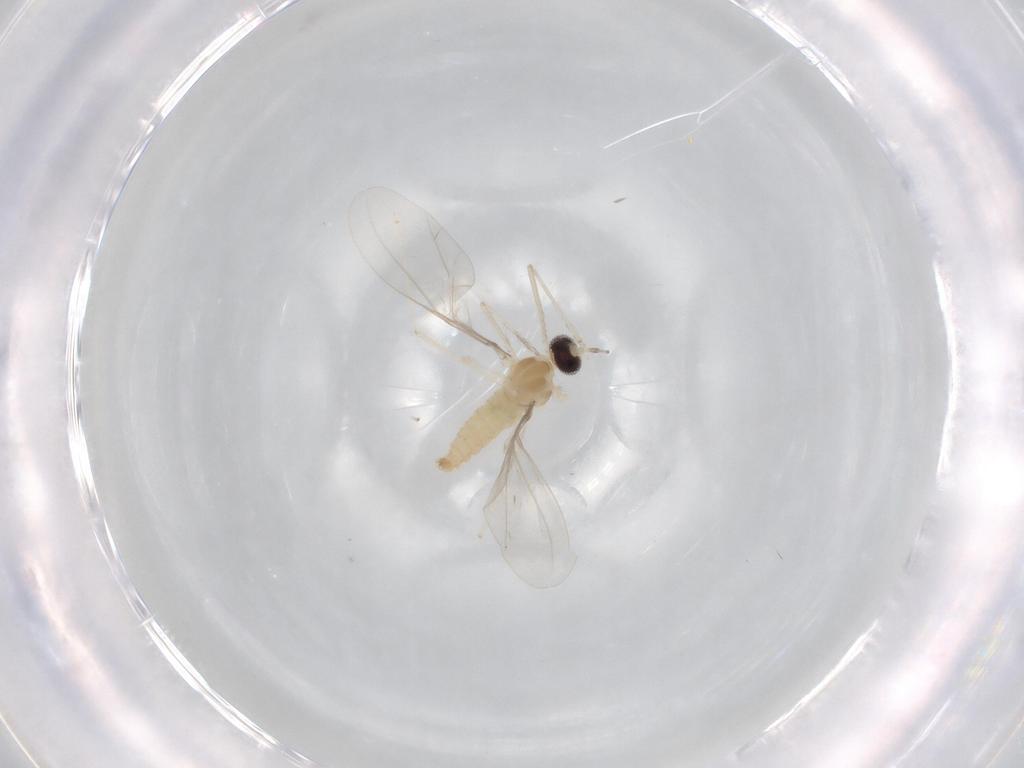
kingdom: Animalia
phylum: Arthropoda
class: Insecta
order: Diptera
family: Cecidomyiidae
